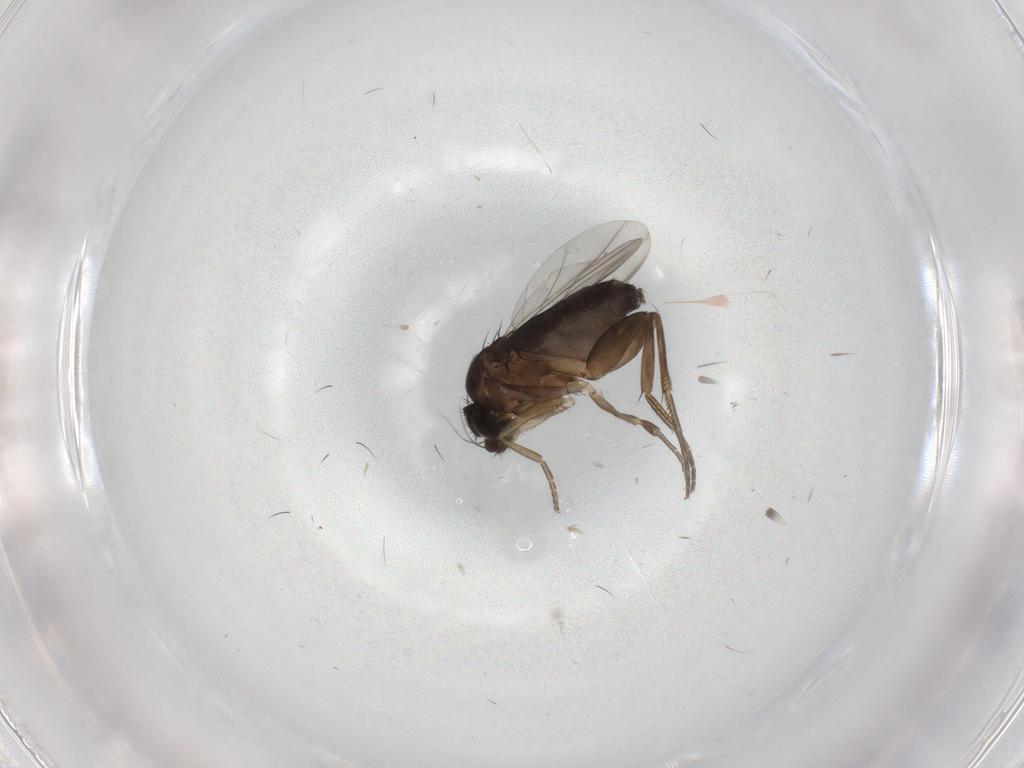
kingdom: Animalia
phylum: Arthropoda
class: Insecta
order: Diptera
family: Phoridae
